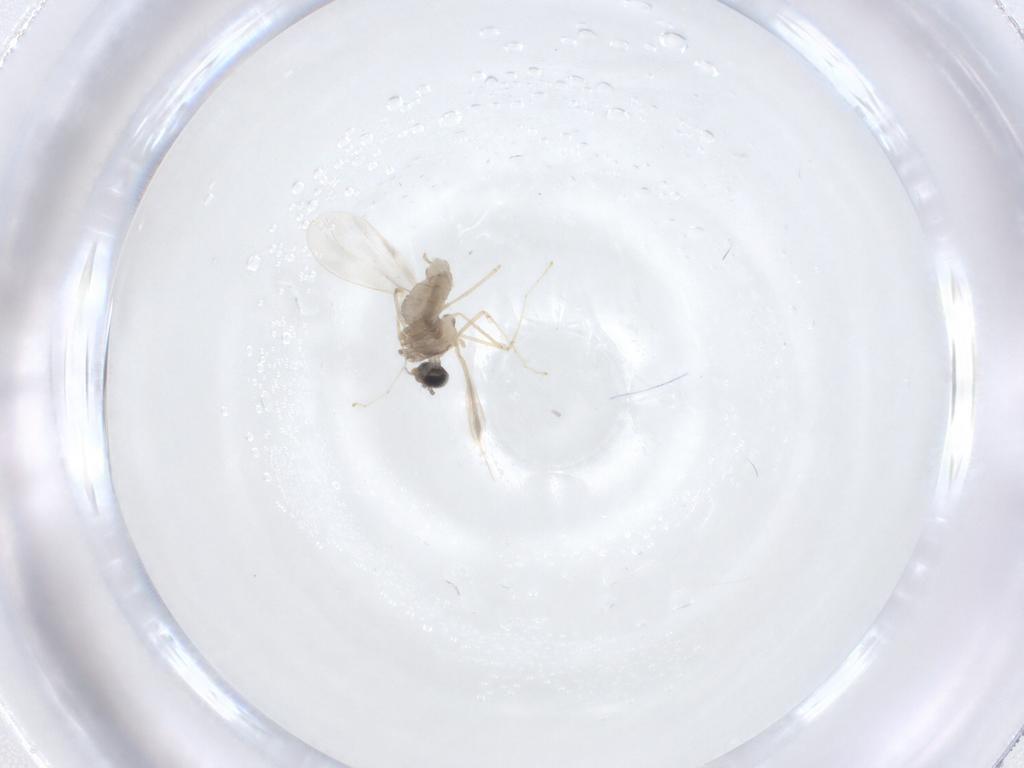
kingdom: Animalia
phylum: Arthropoda
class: Insecta
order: Diptera
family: Cecidomyiidae
